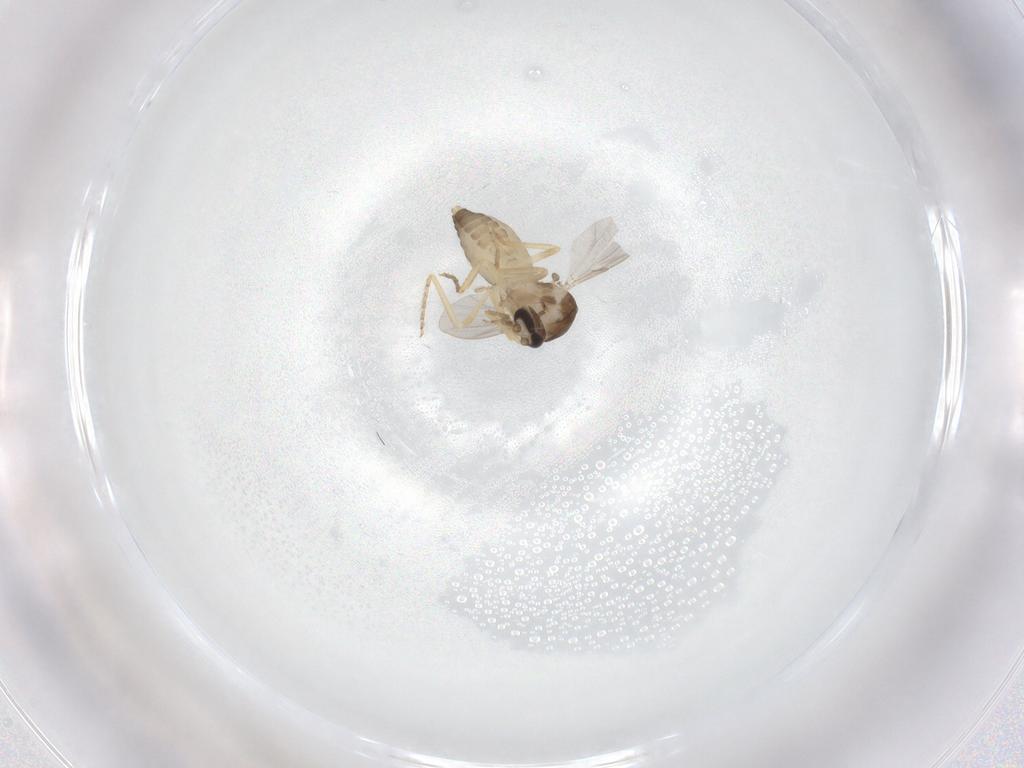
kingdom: Animalia
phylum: Arthropoda
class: Insecta
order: Diptera
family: Ceratopogonidae
